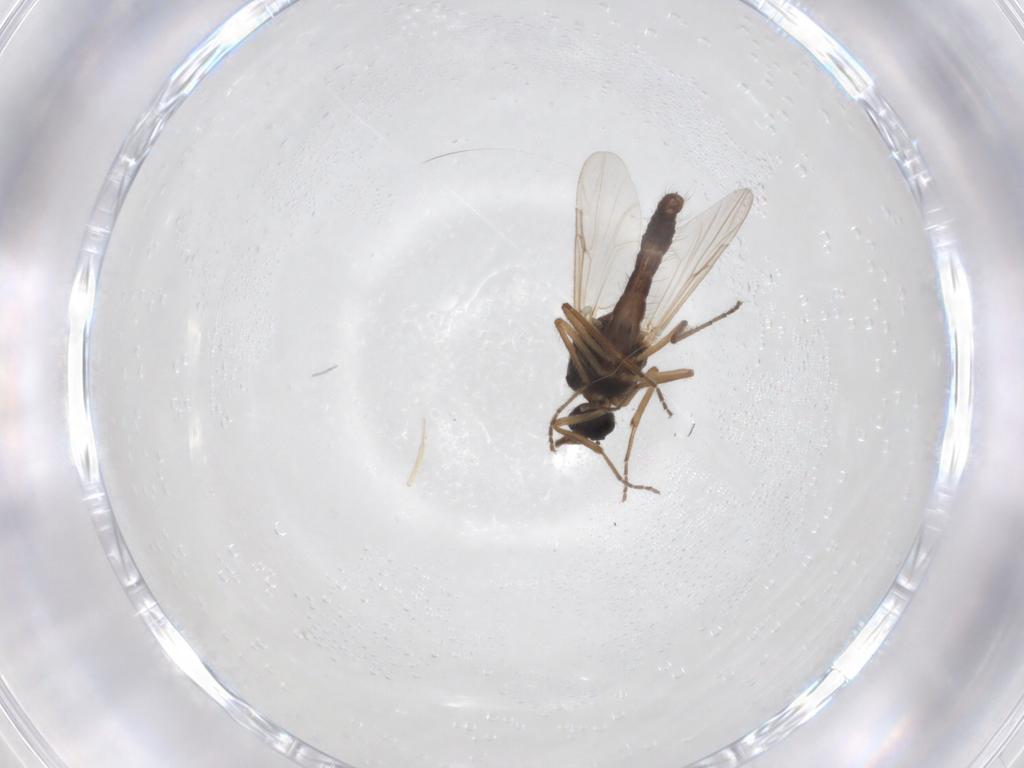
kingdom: Animalia
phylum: Arthropoda
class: Insecta
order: Diptera
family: Ceratopogonidae
